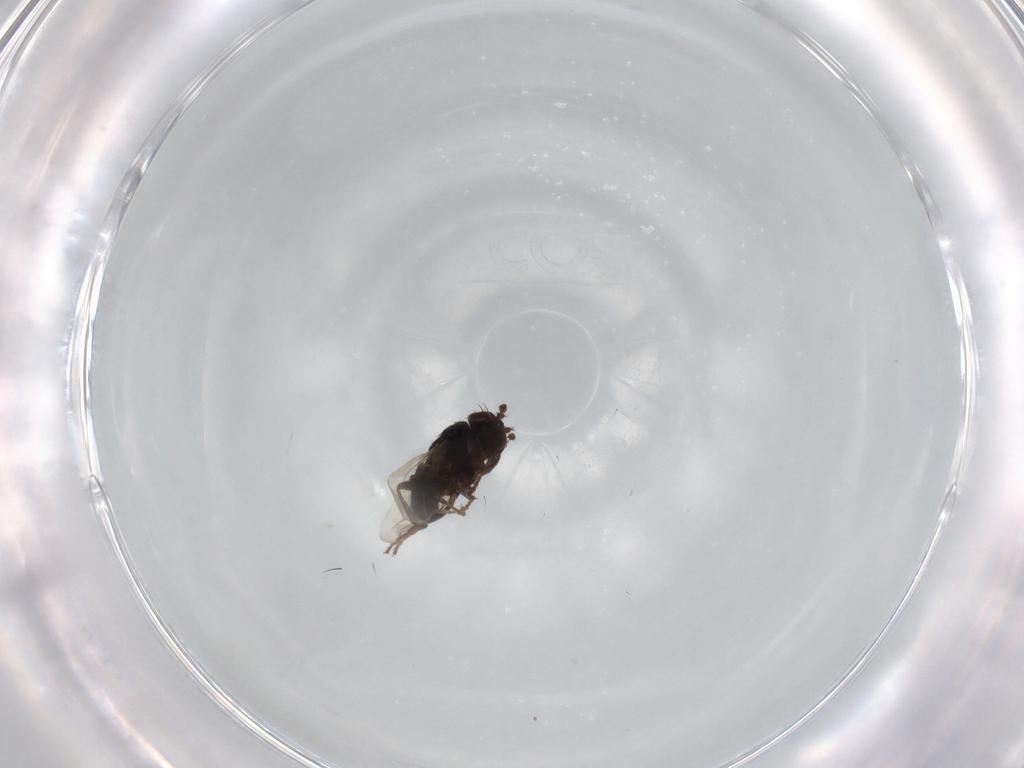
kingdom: Animalia
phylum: Arthropoda
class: Insecta
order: Diptera
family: Sphaeroceridae
